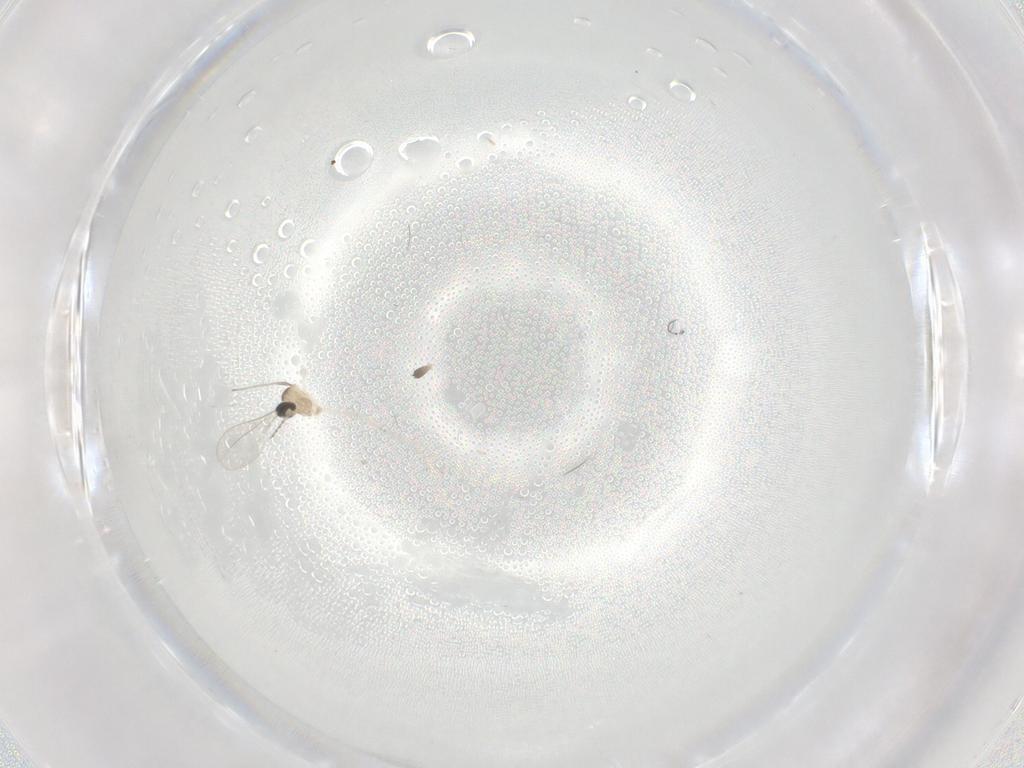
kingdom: Animalia
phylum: Arthropoda
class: Insecta
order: Diptera
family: Cecidomyiidae
